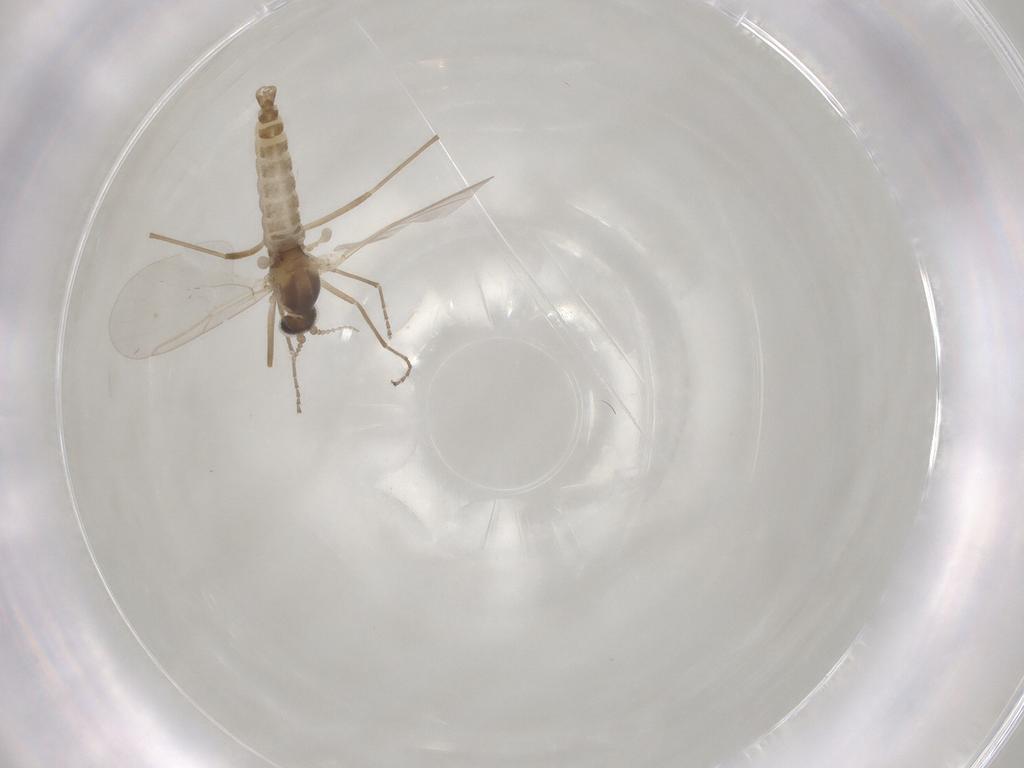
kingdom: Animalia
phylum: Arthropoda
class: Insecta
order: Diptera
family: Cecidomyiidae
